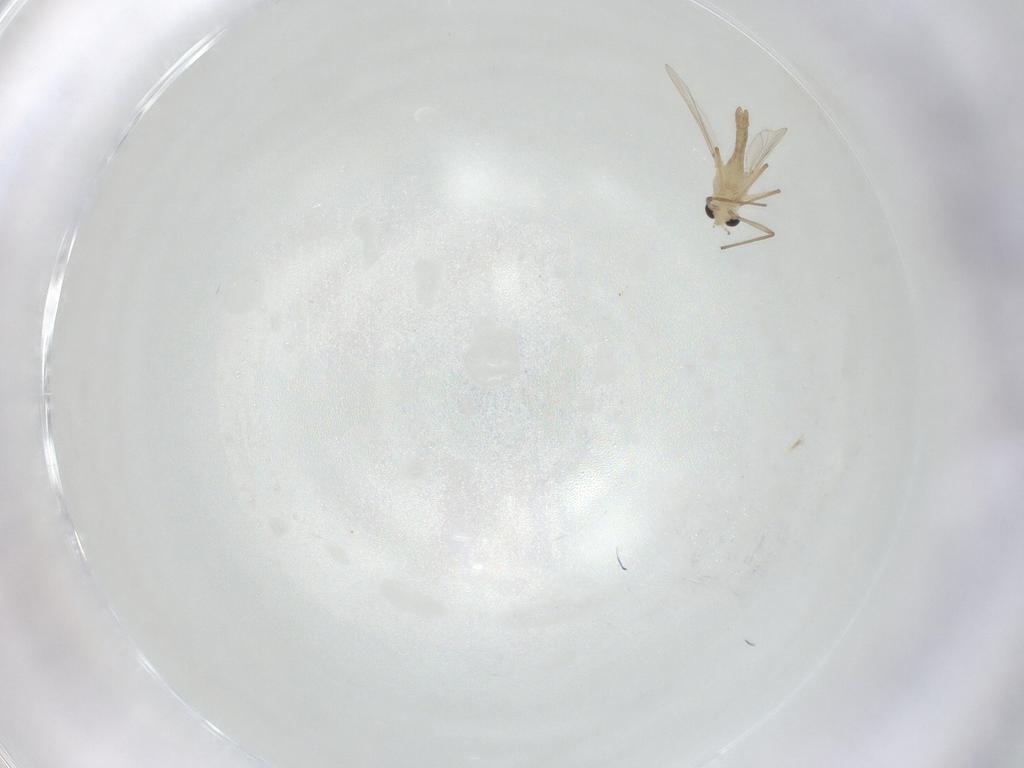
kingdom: Animalia
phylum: Arthropoda
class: Insecta
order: Diptera
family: Chironomidae
